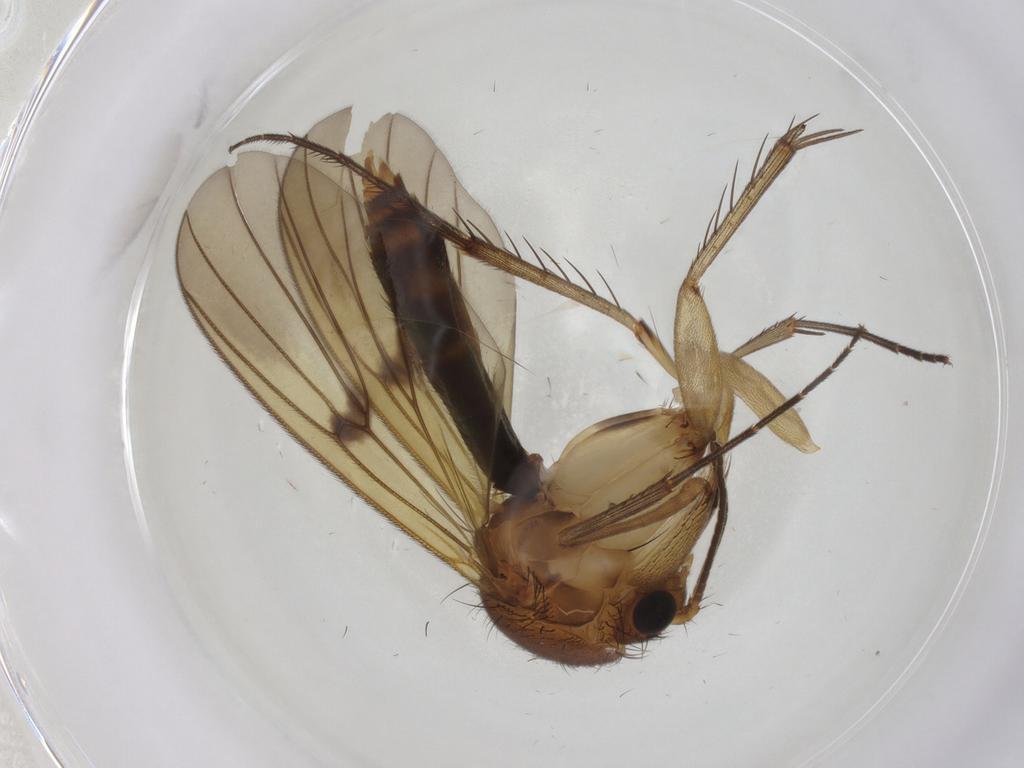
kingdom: Animalia
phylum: Arthropoda
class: Insecta
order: Diptera
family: Mycetophilidae
